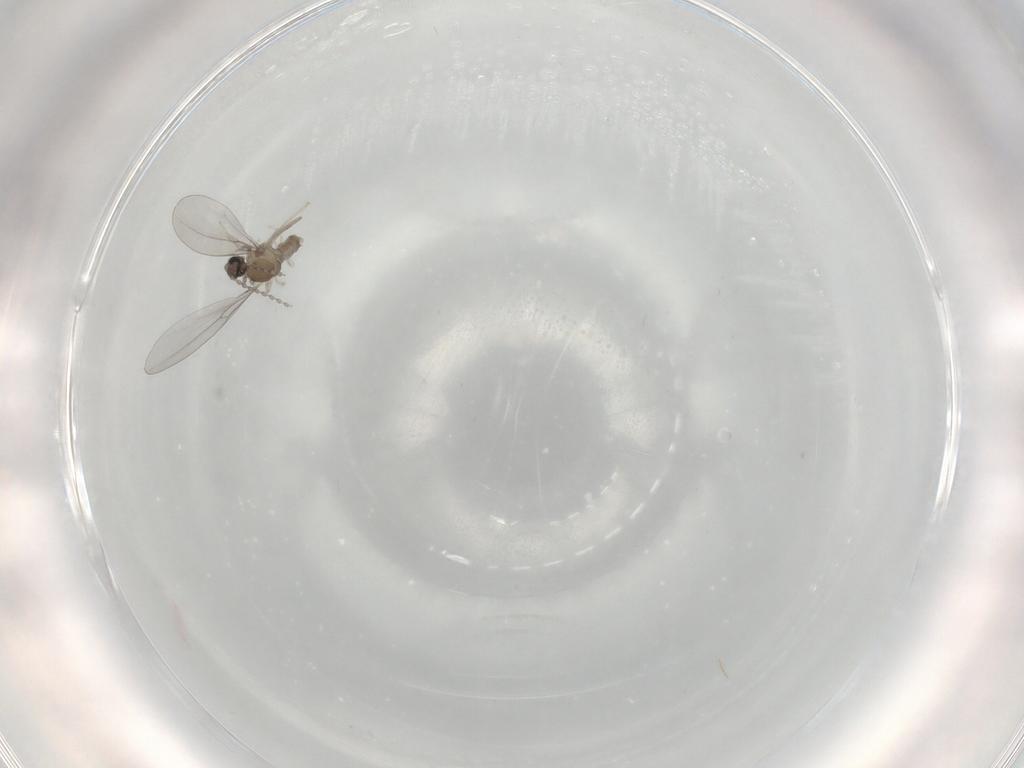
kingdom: Animalia
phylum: Arthropoda
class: Insecta
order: Diptera
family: Cecidomyiidae
